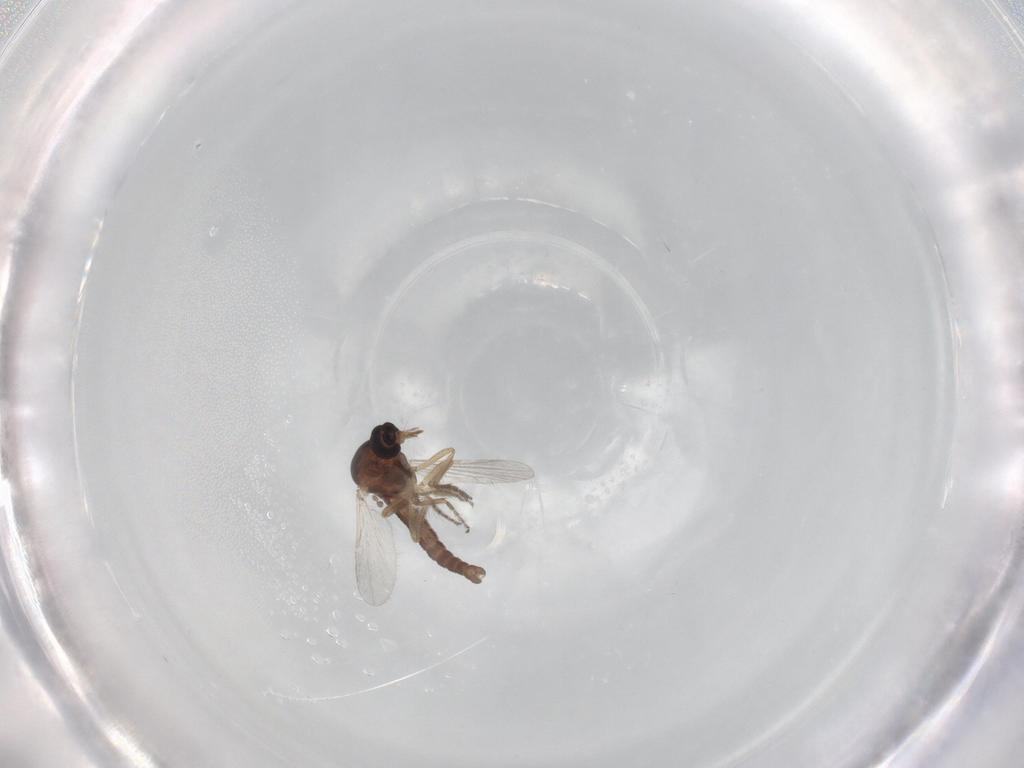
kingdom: Animalia
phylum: Arthropoda
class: Insecta
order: Diptera
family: Ceratopogonidae
